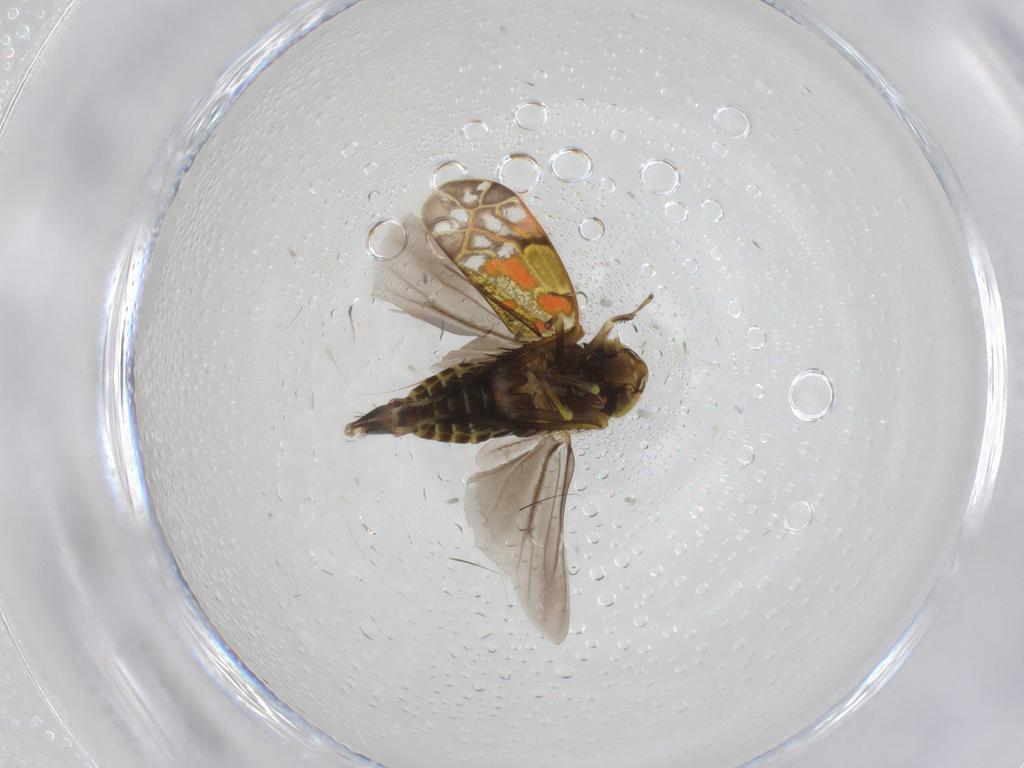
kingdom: Animalia
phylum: Arthropoda
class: Insecta
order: Hemiptera
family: Cicadellidae
